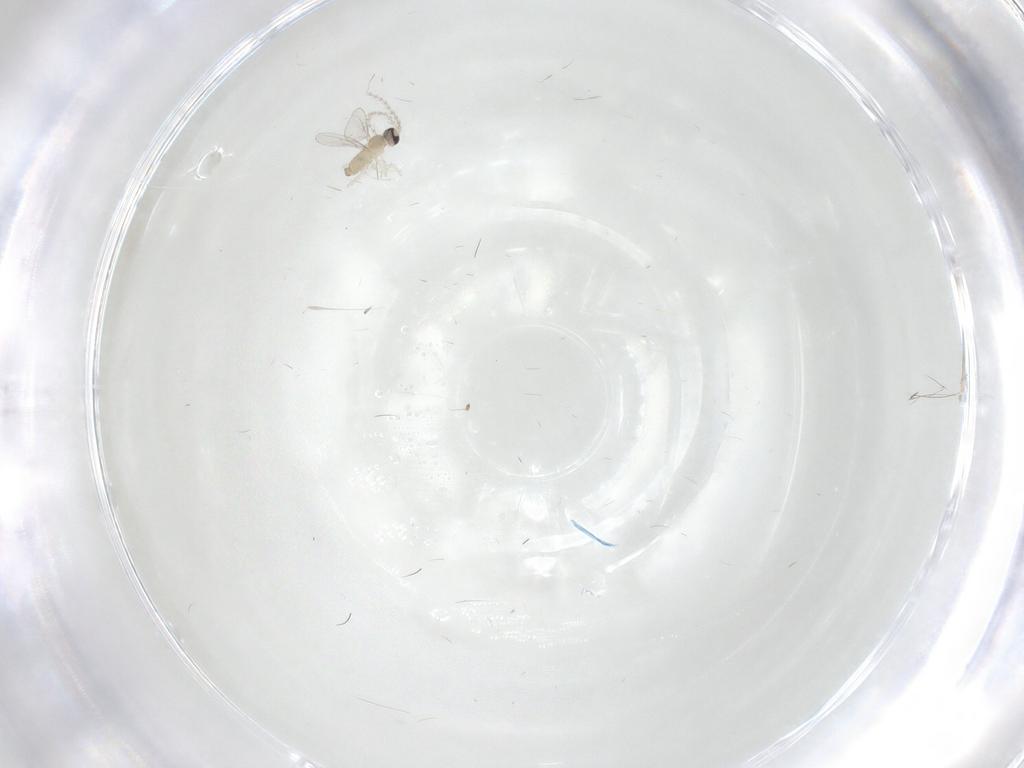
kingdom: Animalia
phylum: Arthropoda
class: Insecta
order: Diptera
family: Cecidomyiidae
